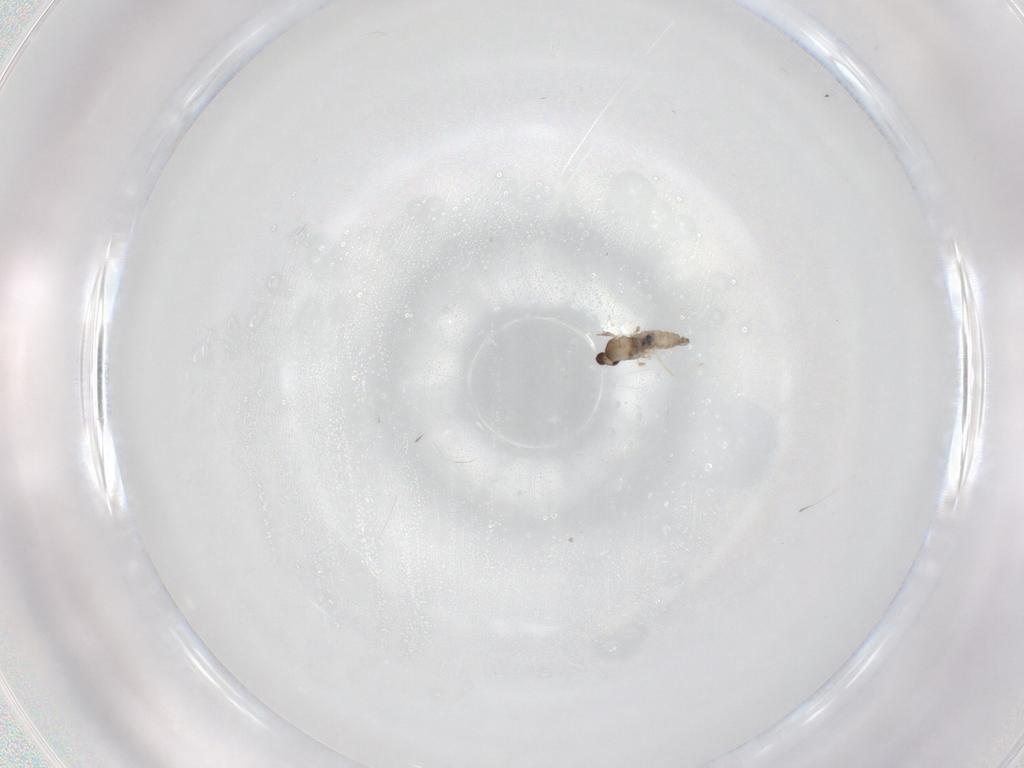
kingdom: Animalia
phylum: Arthropoda
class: Insecta
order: Diptera
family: Cecidomyiidae
